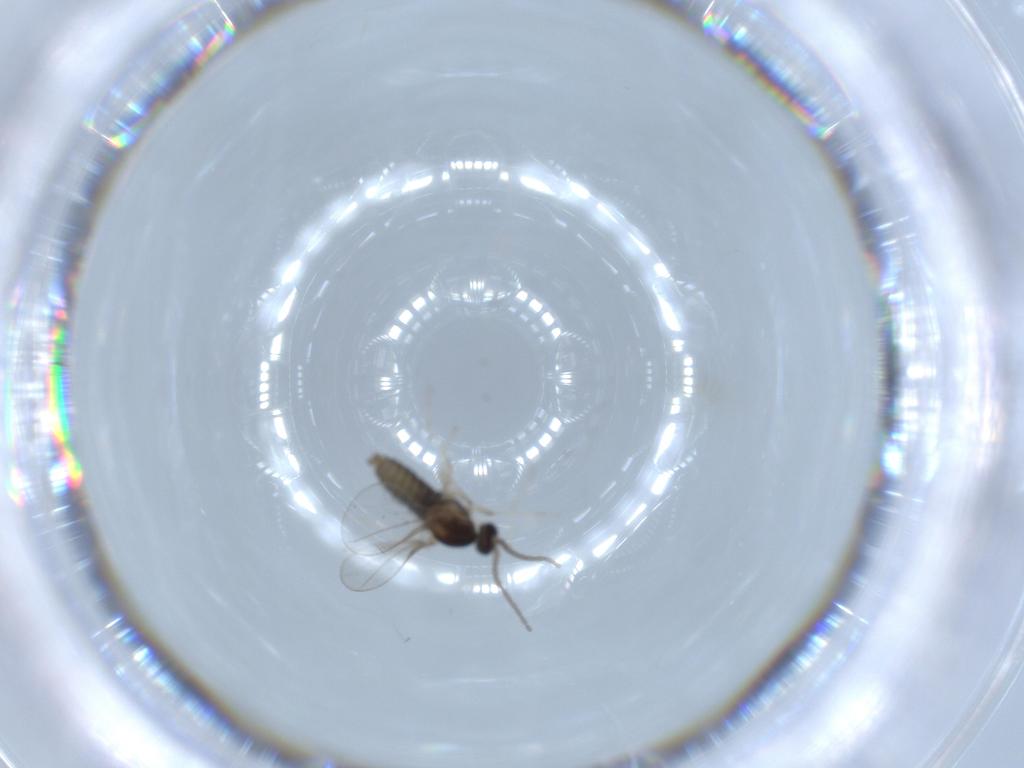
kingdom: Animalia
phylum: Arthropoda
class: Insecta
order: Diptera
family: Cecidomyiidae
